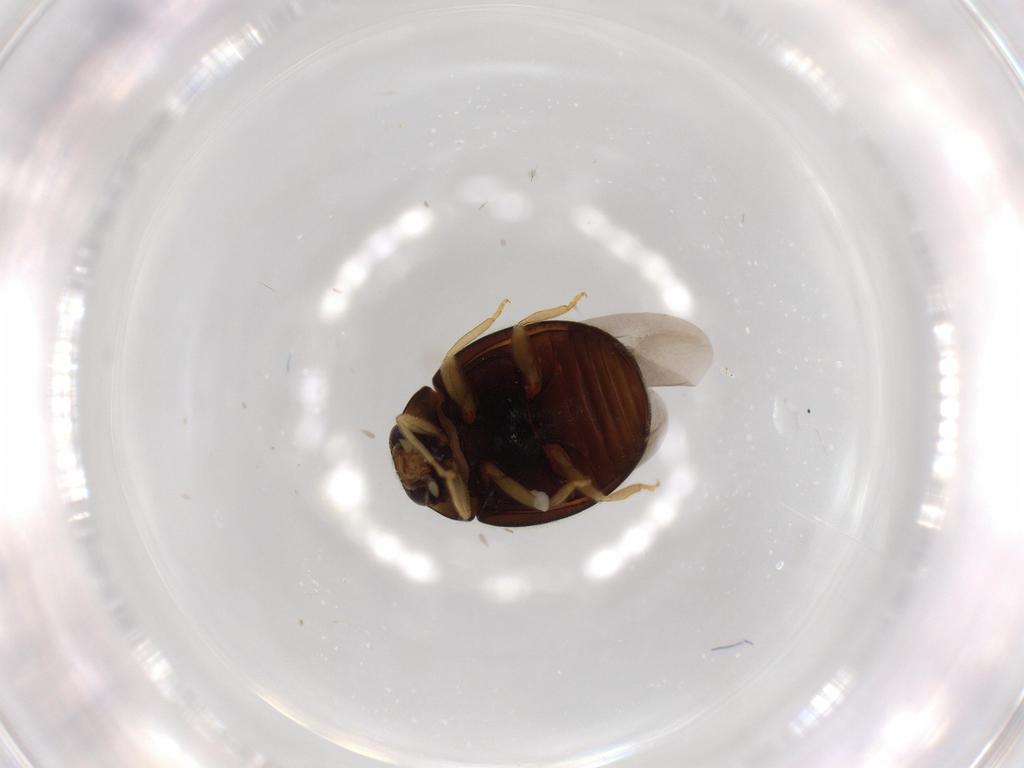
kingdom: Animalia
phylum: Arthropoda
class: Insecta
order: Coleoptera
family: Coccinellidae
